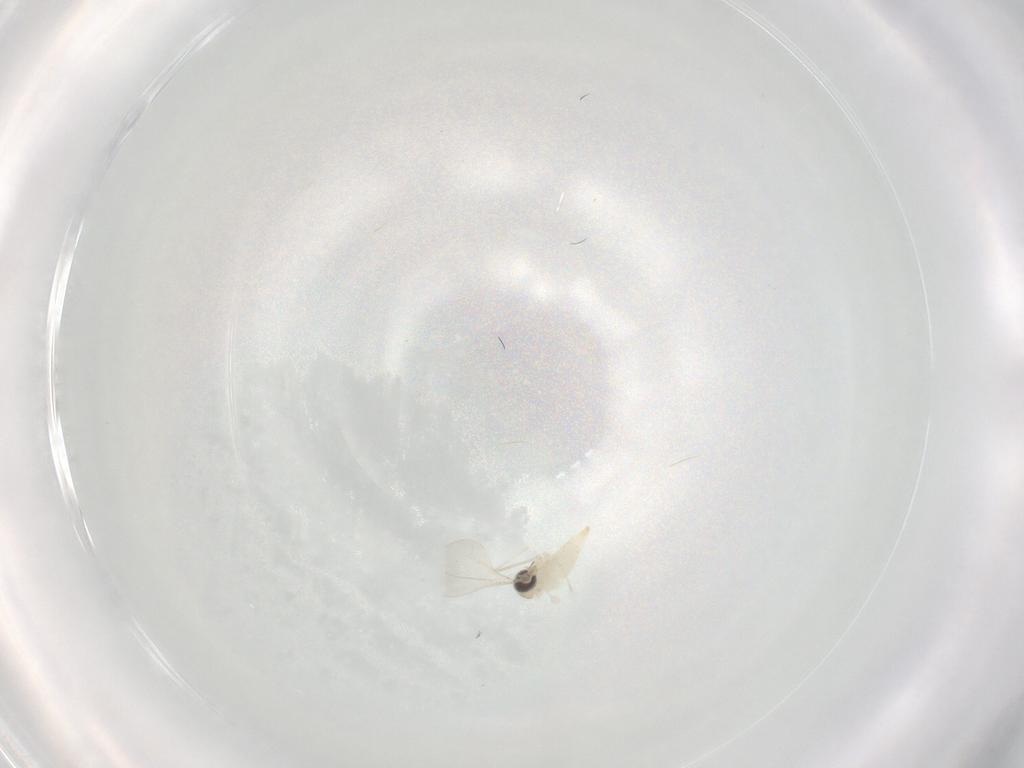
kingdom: Animalia
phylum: Arthropoda
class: Insecta
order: Diptera
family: Cecidomyiidae
